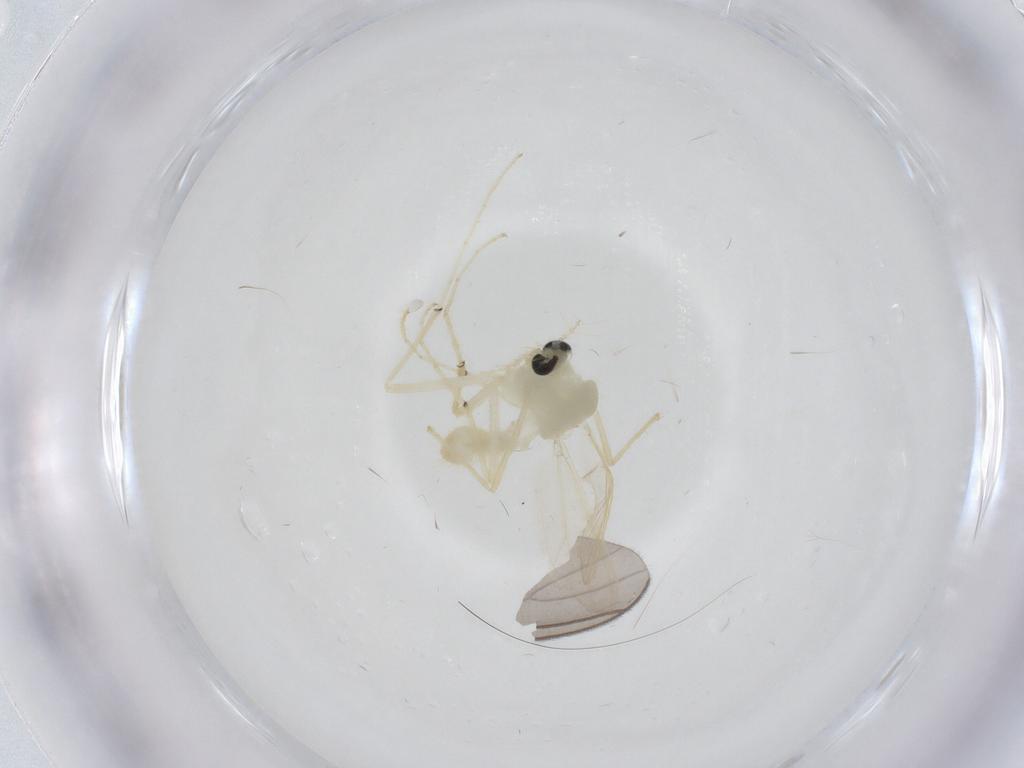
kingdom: Animalia
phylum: Arthropoda
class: Insecta
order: Diptera
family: Sciaridae
